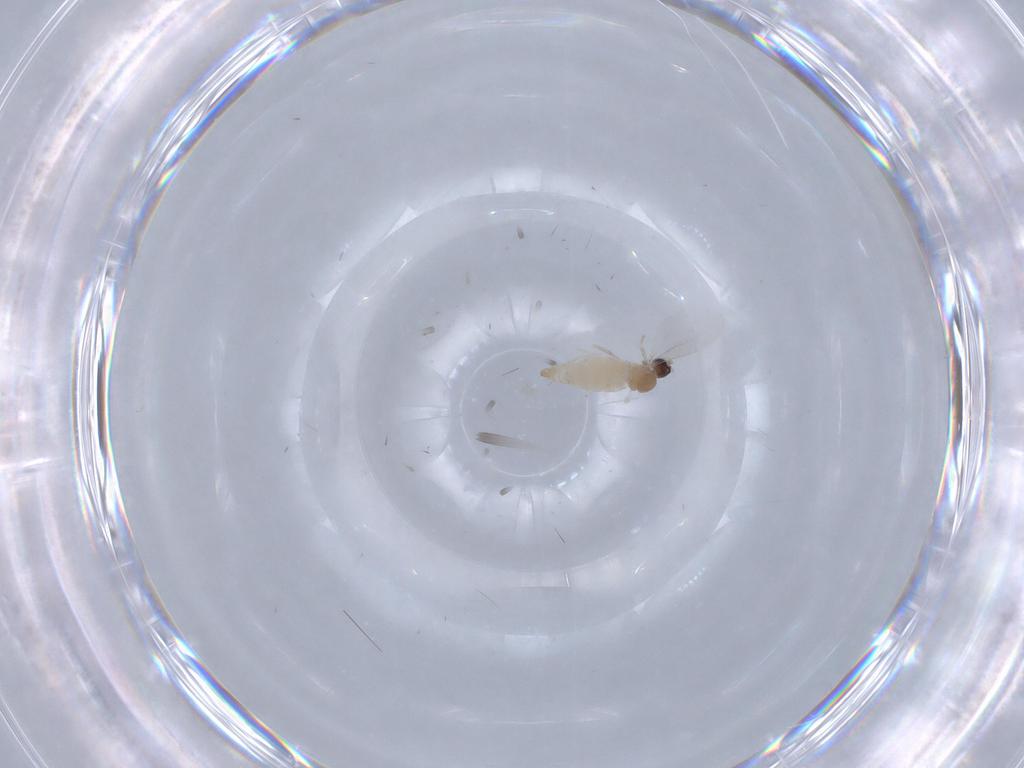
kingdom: Animalia
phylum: Arthropoda
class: Insecta
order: Diptera
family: Cecidomyiidae
